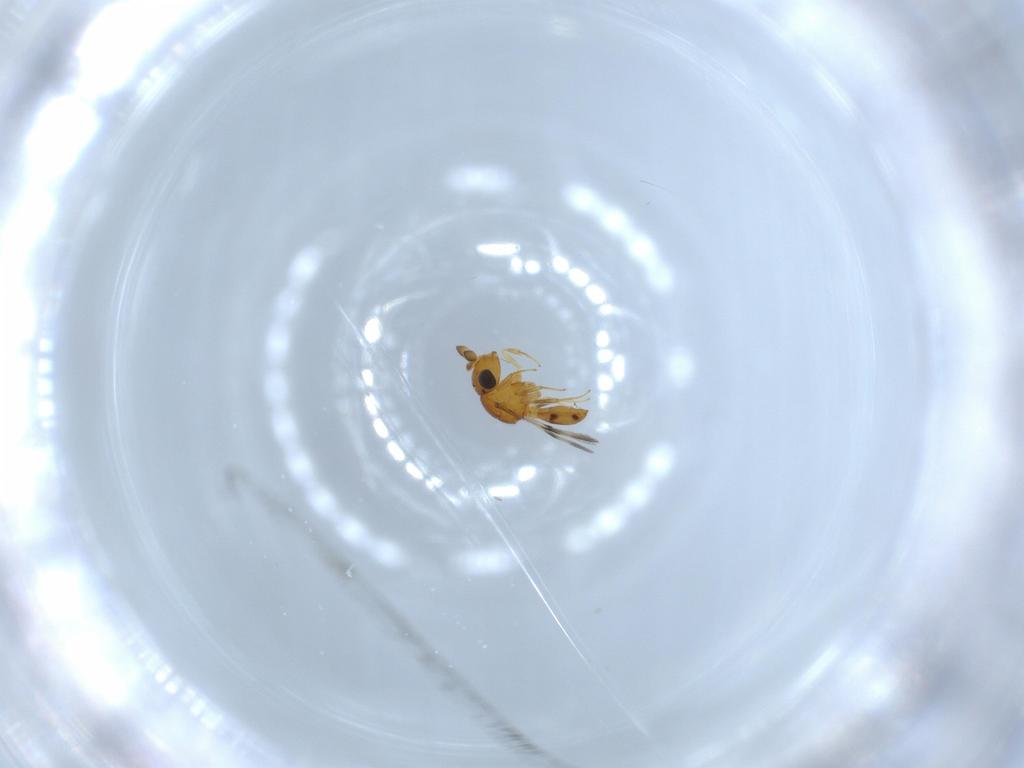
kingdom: Animalia
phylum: Arthropoda
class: Insecta
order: Hymenoptera
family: Scelionidae
